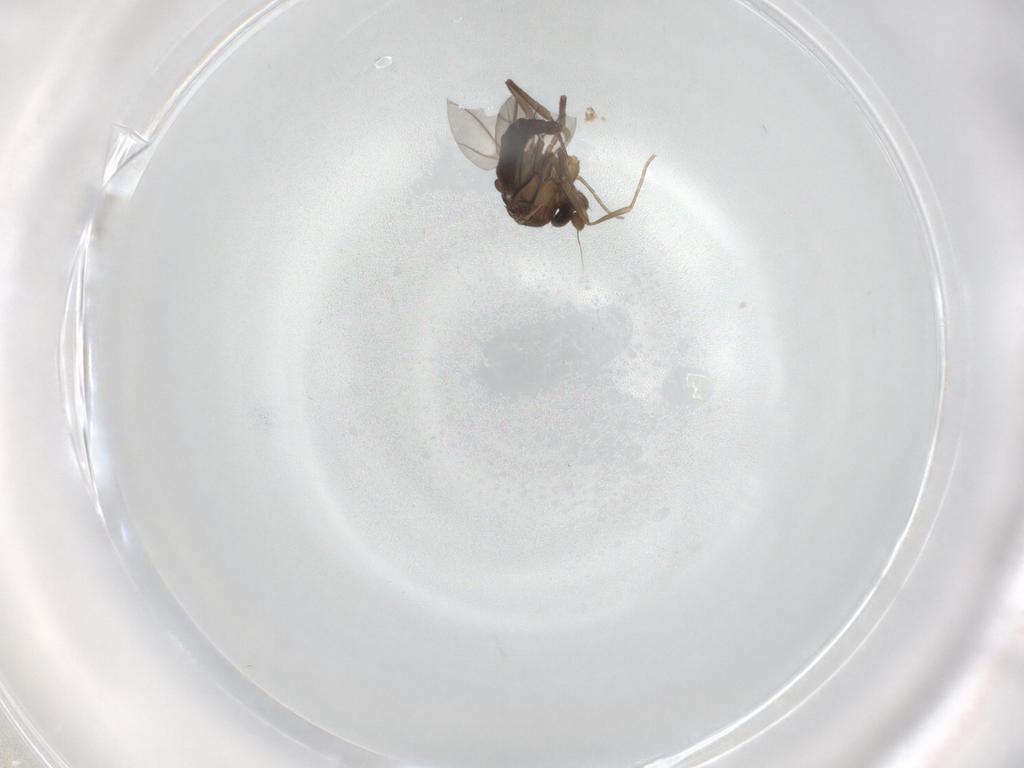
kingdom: Animalia
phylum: Arthropoda
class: Insecta
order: Diptera
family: Phoridae
